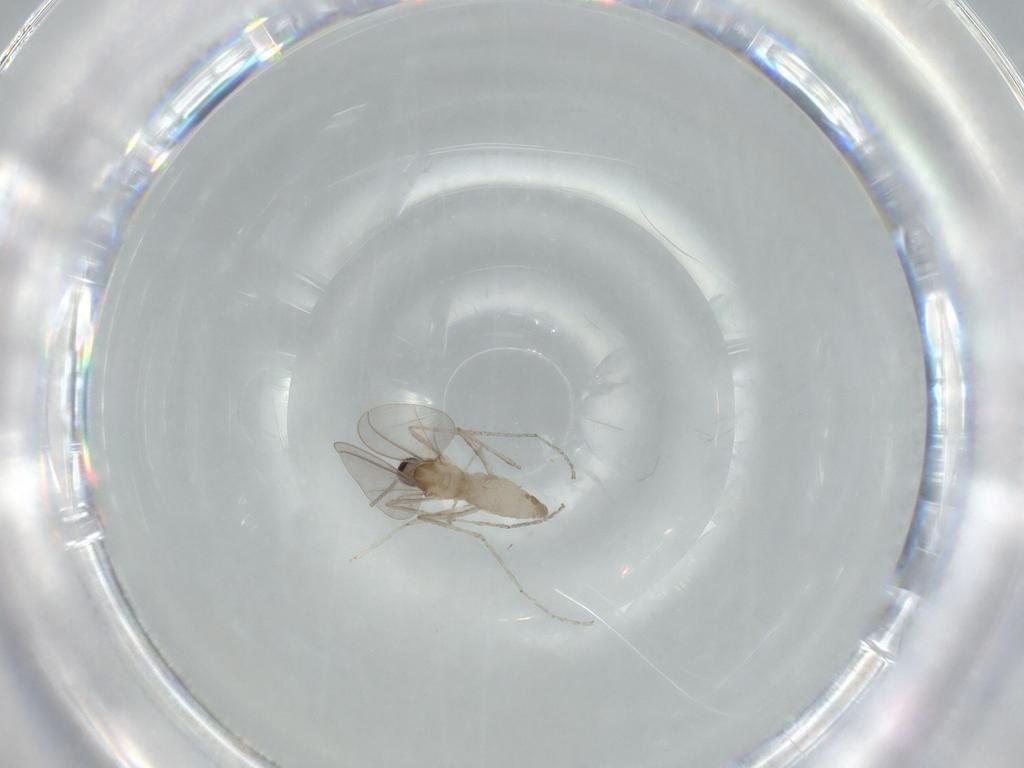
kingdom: Animalia
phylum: Arthropoda
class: Insecta
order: Diptera
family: Cecidomyiidae
